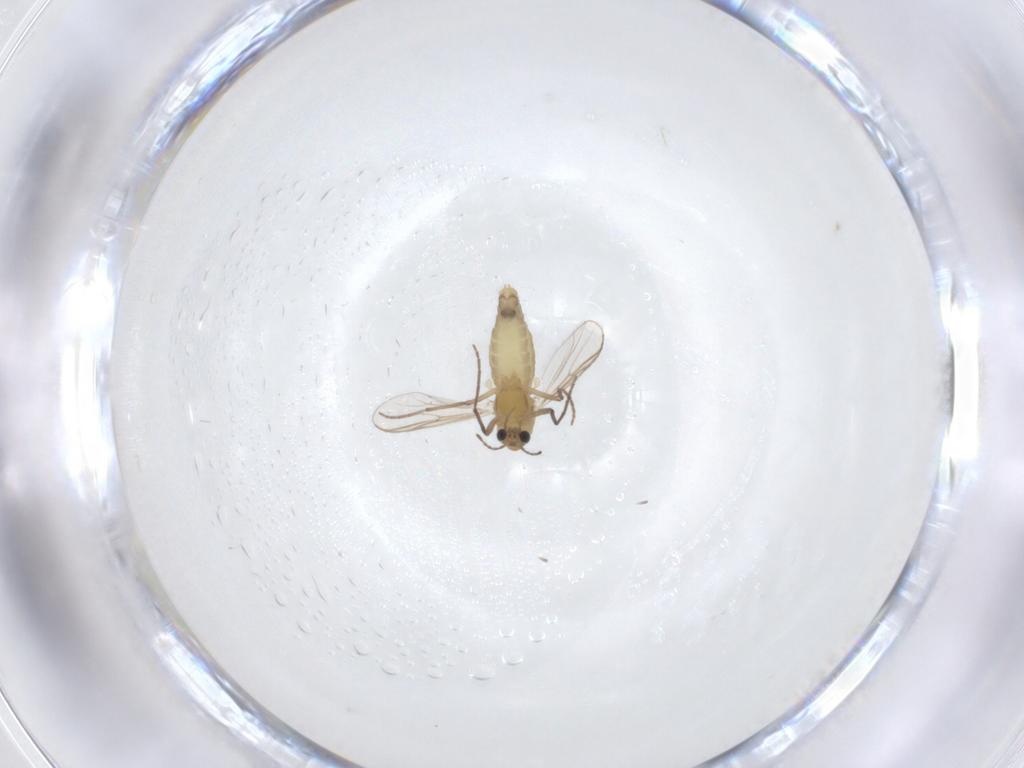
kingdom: Animalia
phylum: Arthropoda
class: Insecta
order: Diptera
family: Chironomidae
